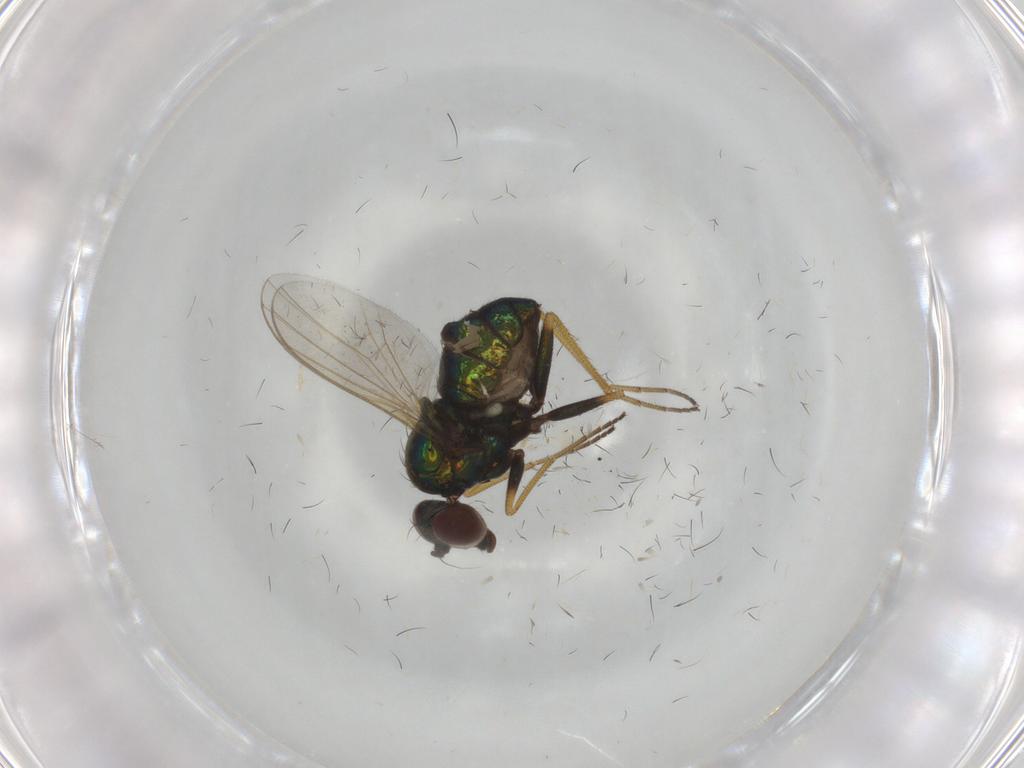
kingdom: Animalia
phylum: Arthropoda
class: Insecta
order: Diptera
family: Dolichopodidae
